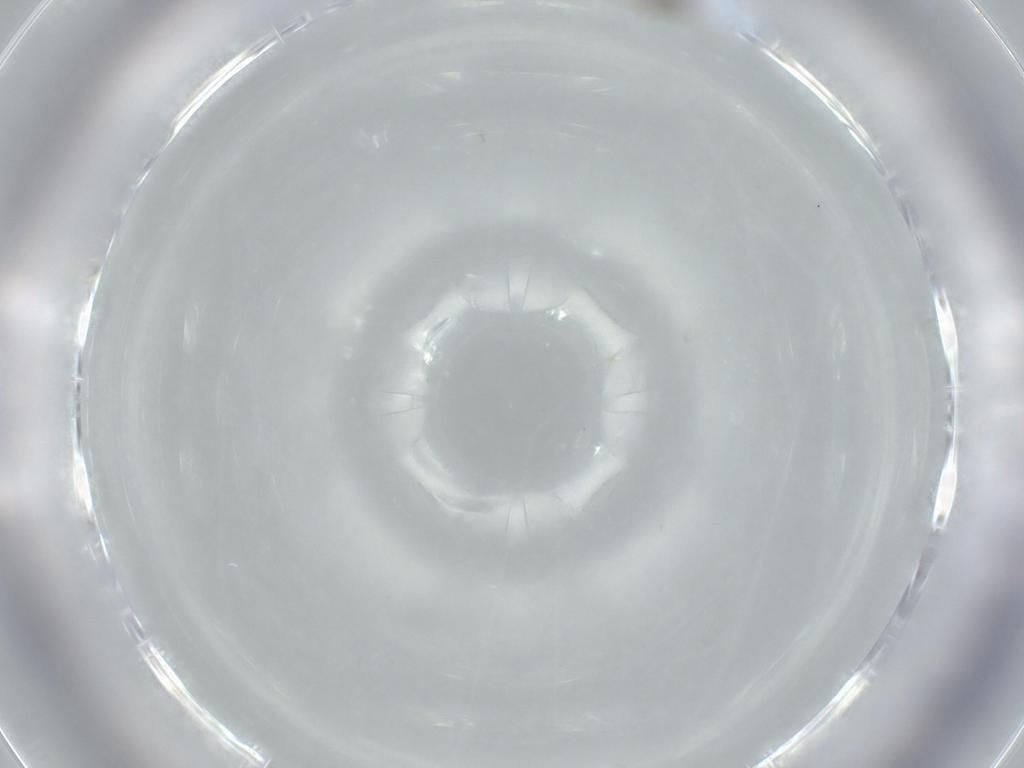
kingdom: Animalia
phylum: Arthropoda
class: Insecta
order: Diptera
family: Sciaridae
